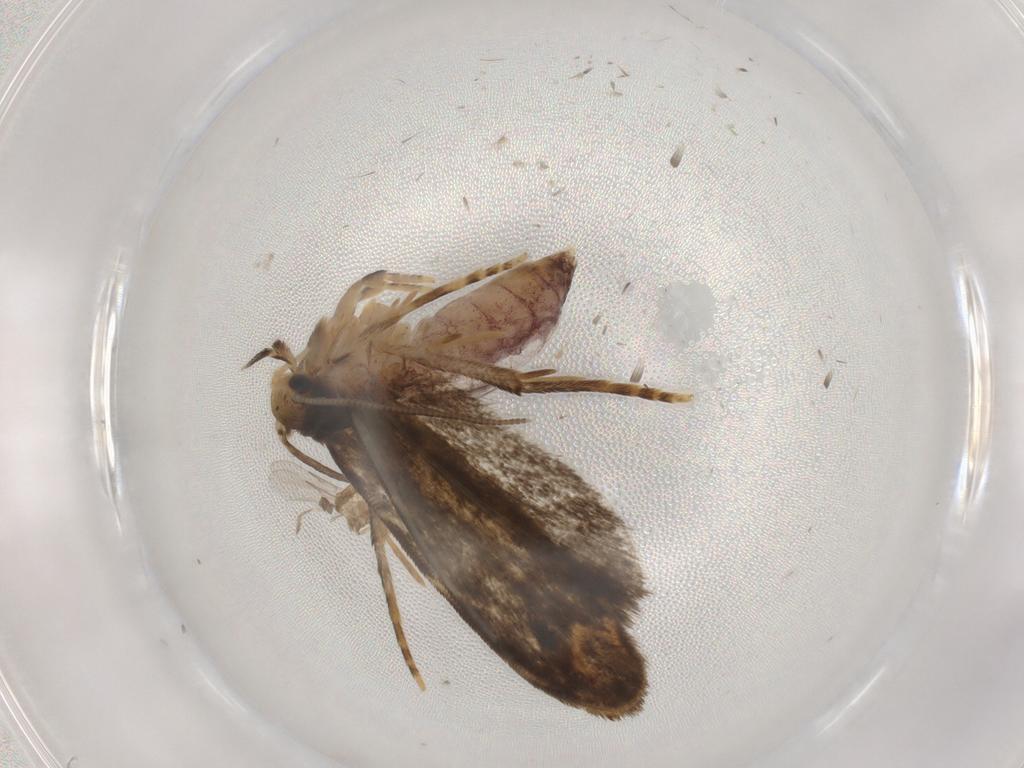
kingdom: Animalia
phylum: Arthropoda
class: Insecta
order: Lepidoptera
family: Dryadaulidae
